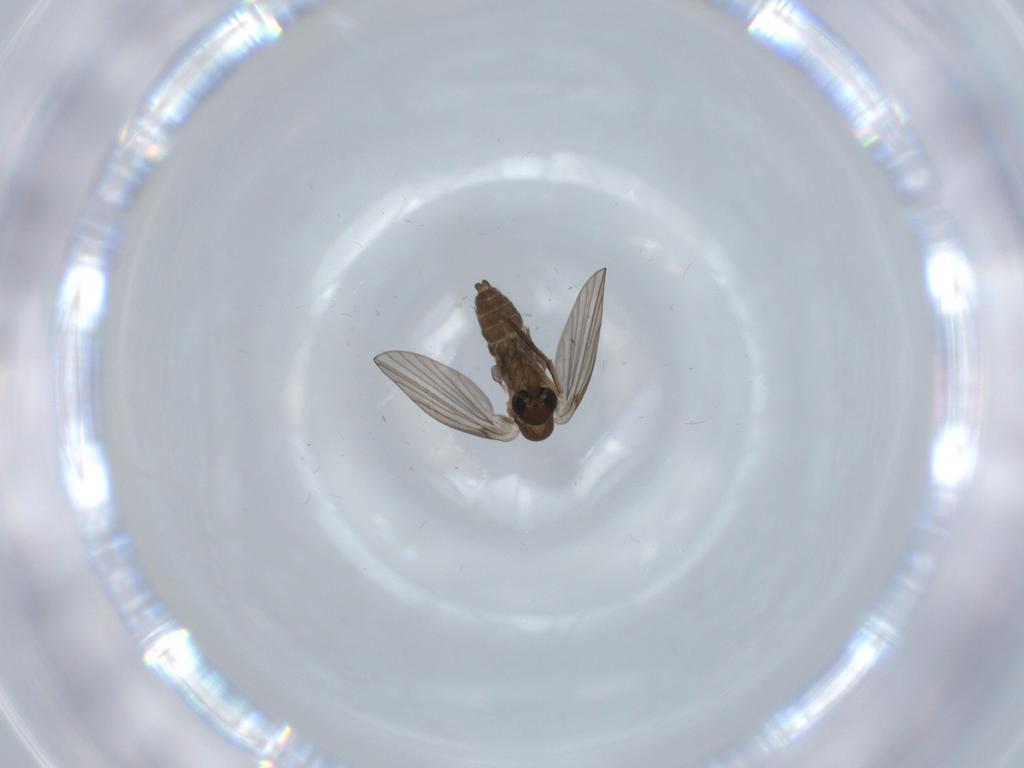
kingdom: Animalia
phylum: Arthropoda
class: Insecta
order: Diptera
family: Psychodidae
